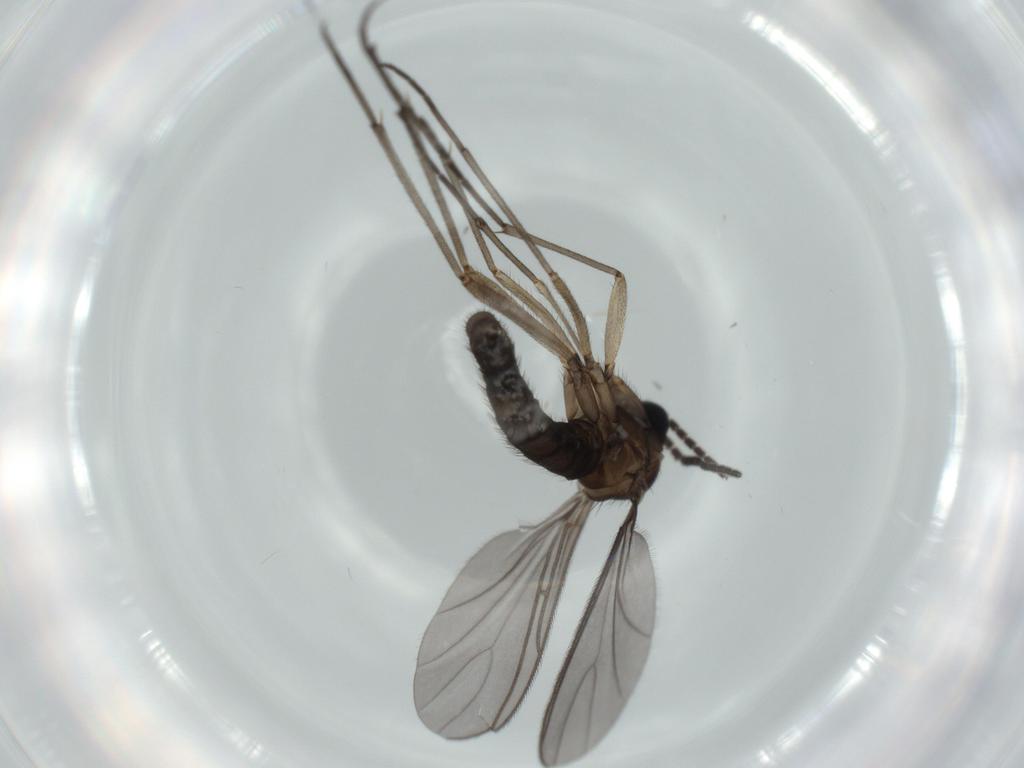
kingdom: Animalia
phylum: Arthropoda
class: Insecta
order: Diptera
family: Sciaridae
